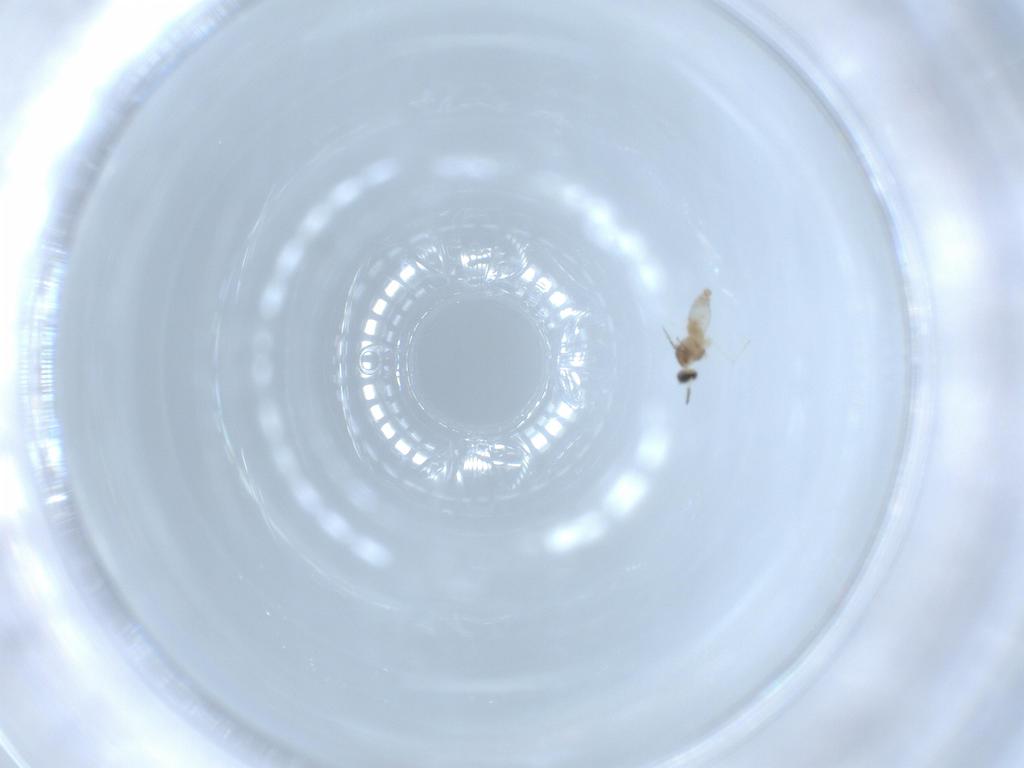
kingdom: Animalia
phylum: Arthropoda
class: Insecta
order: Diptera
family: Cecidomyiidae
